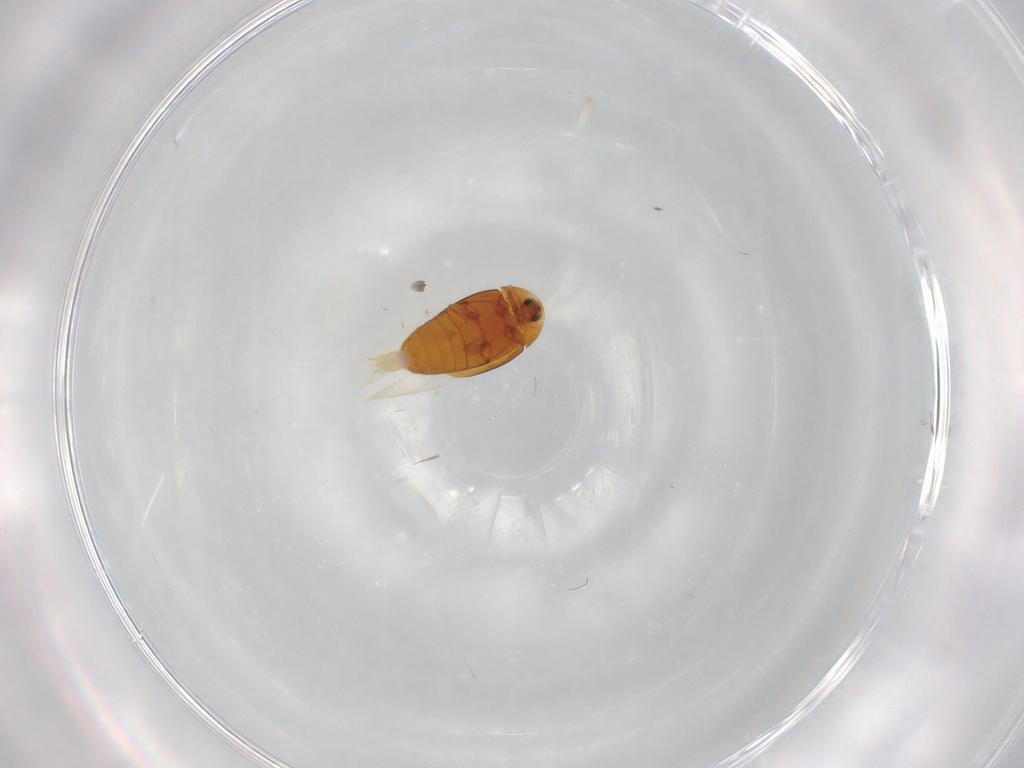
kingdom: Animalia
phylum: Arthropoda
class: Insecta
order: Coleoptera
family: Corylophidae
